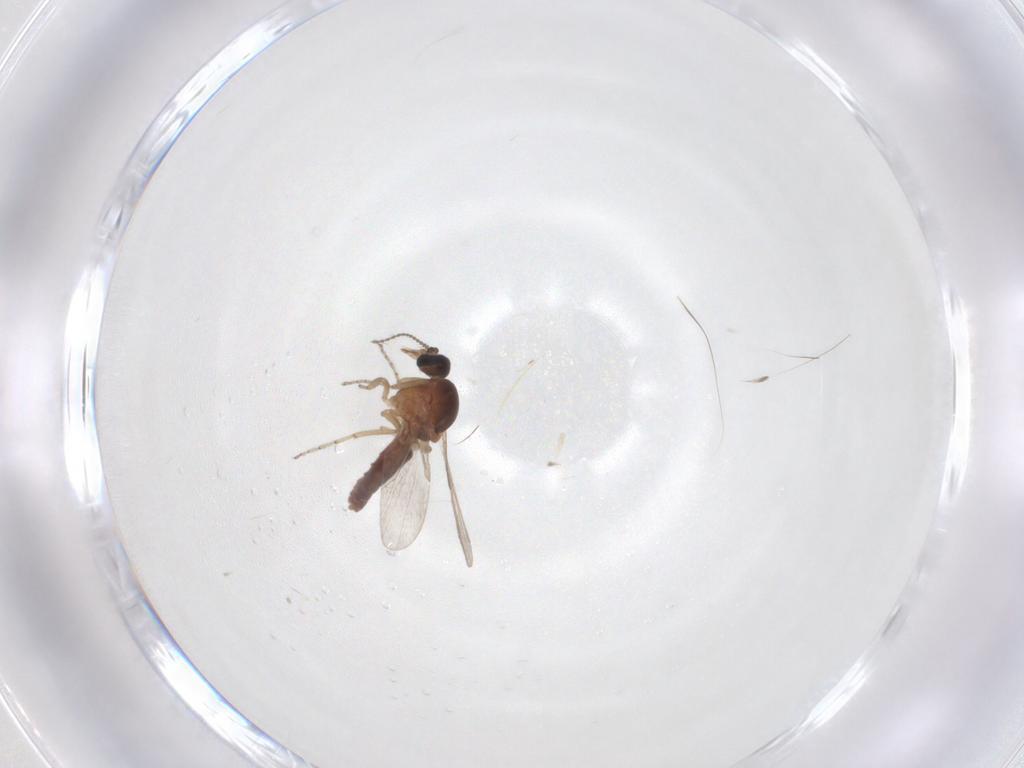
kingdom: Animalia
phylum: Arthropoda
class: Insecta
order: Diptera
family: Ceratopogonidae
